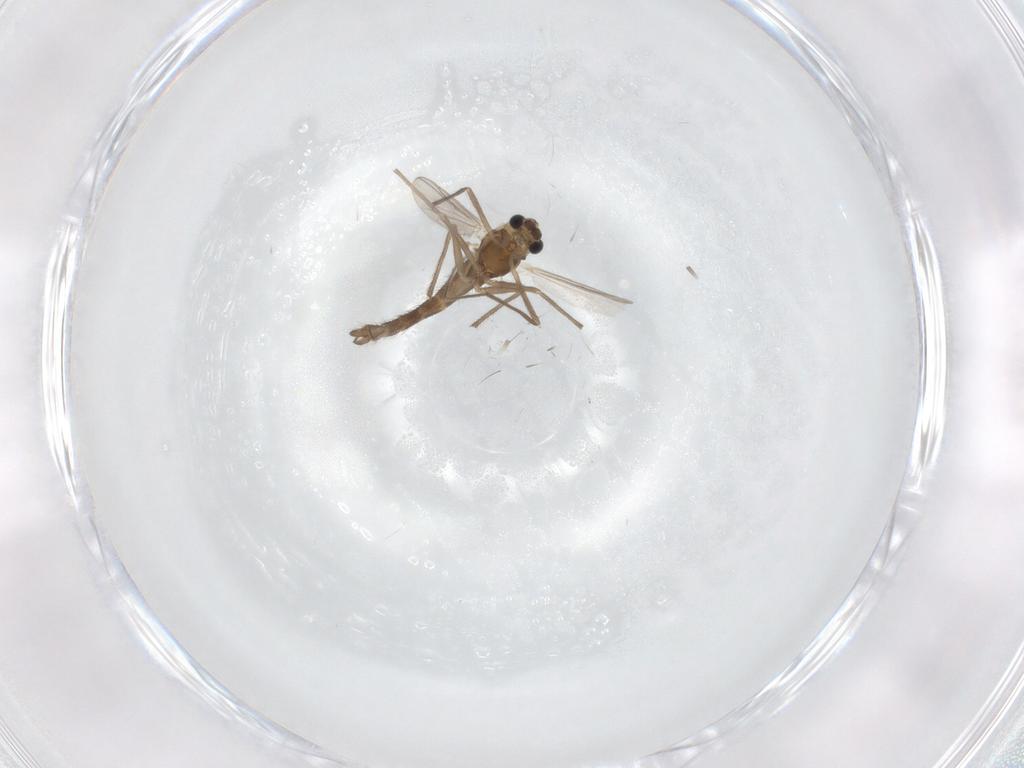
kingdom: Animalia
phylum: Arthropoda
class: Insecta
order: Diptera
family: Chironomidae
